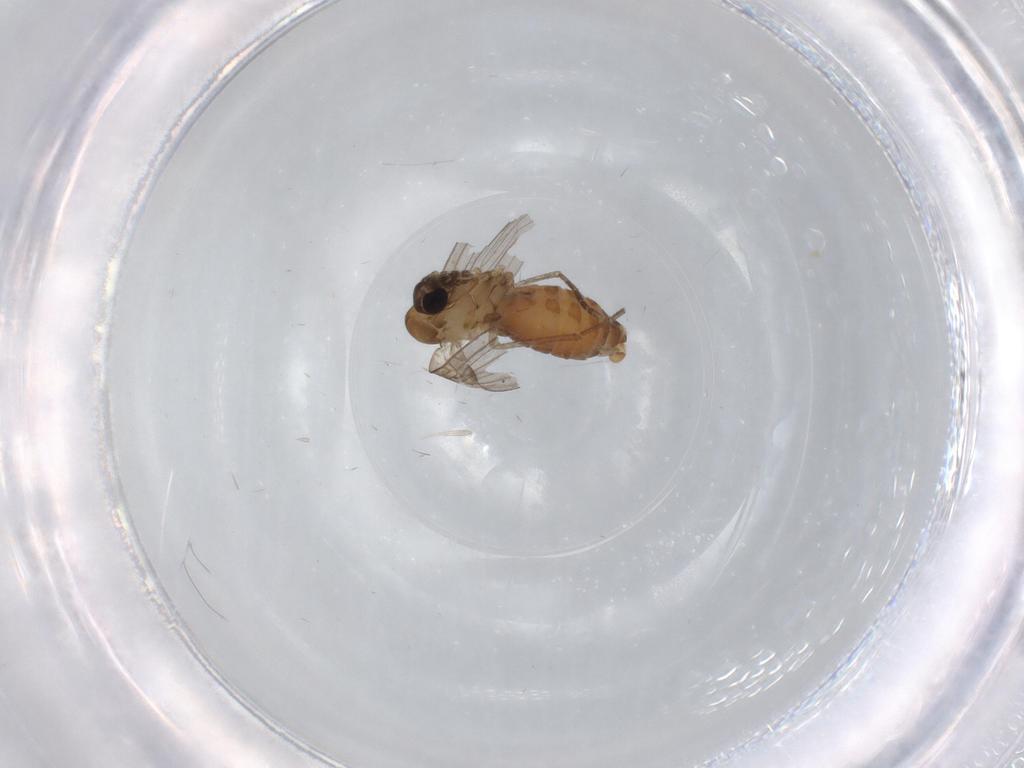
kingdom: Animalia
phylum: Arthropoda
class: Insecta
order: Diptera
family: Psychodidae
